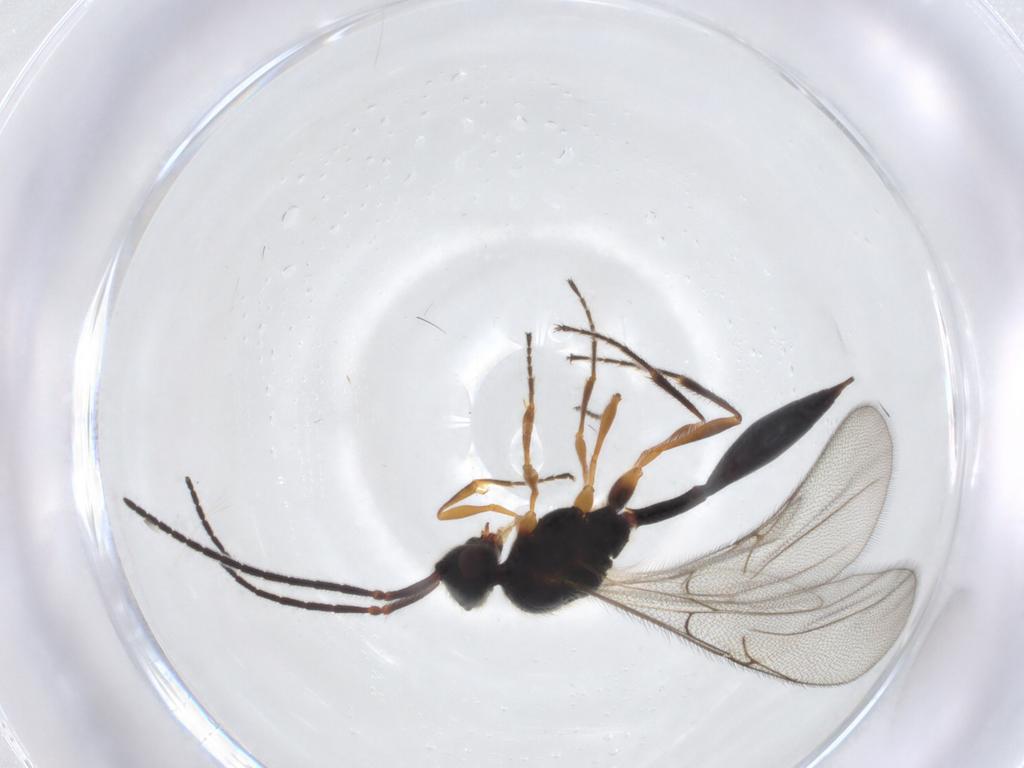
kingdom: Animalia
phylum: Arthropoda
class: Insecta
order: Hymenoptera
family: Diapriidae
